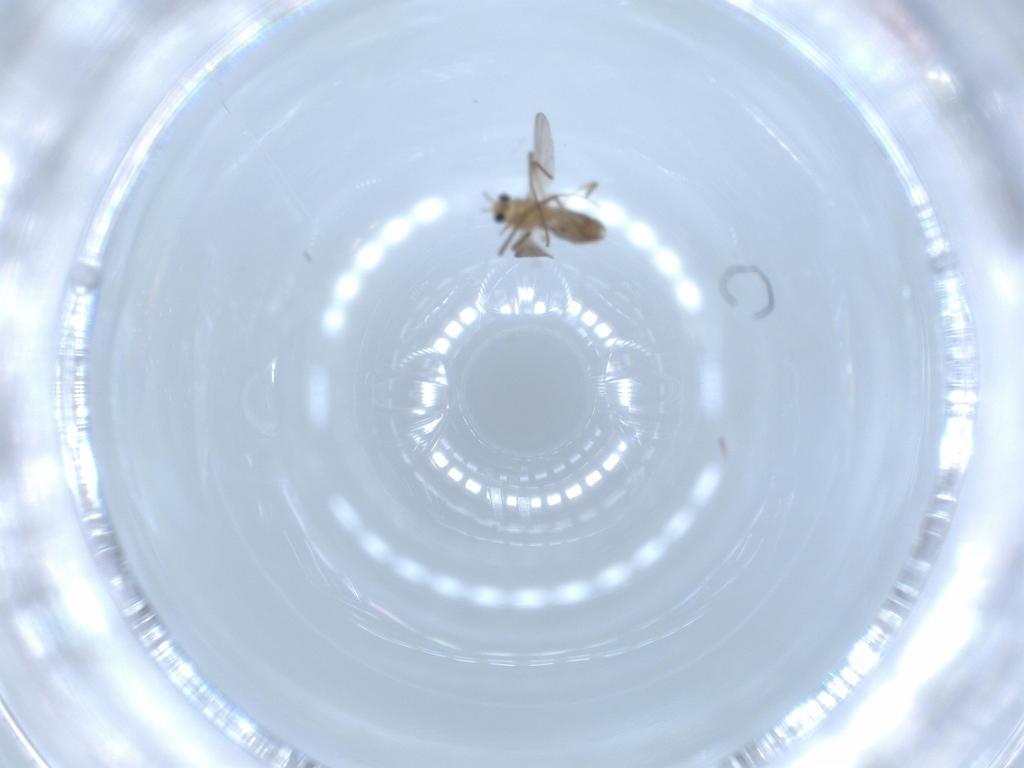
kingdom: Animalia
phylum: Arthropoda
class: Insecta
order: Diptera
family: Chironomidae
